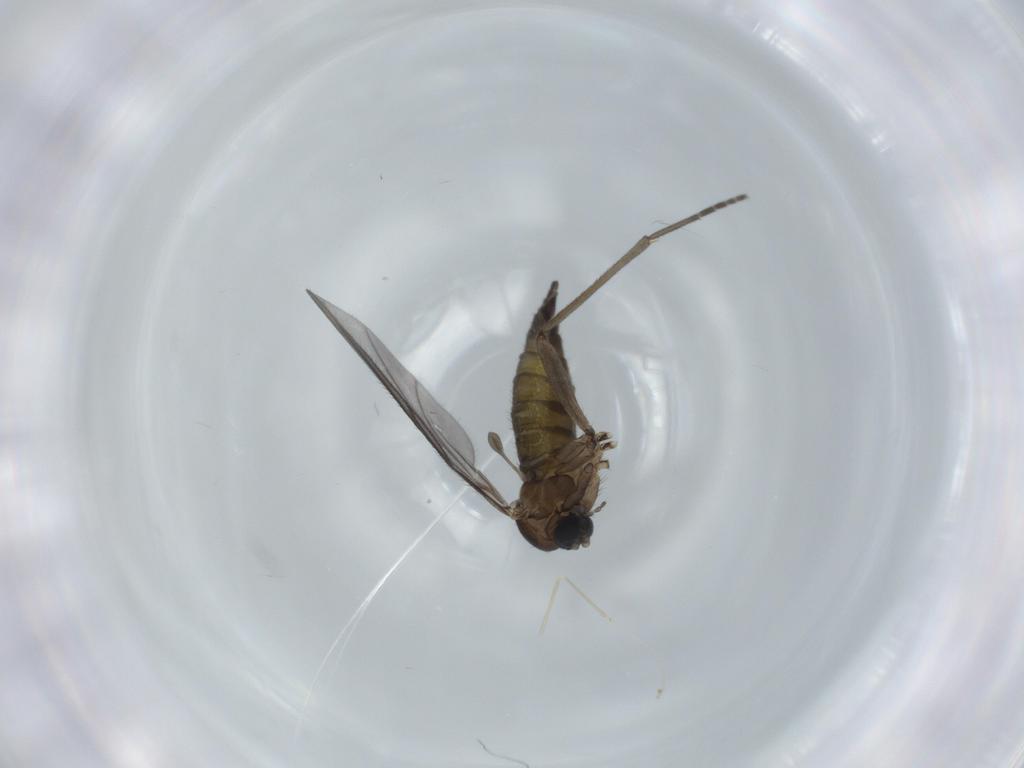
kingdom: Animalia
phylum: Arthropoda
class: Insecta
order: Diptera
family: Sciaridae
